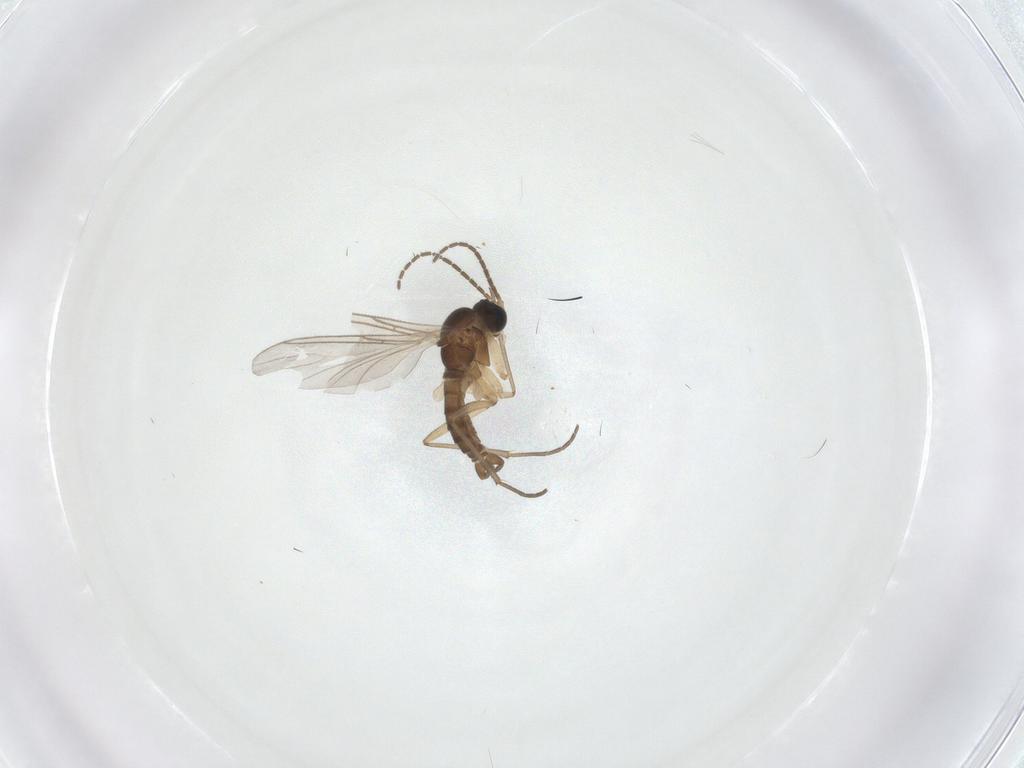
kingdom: Animalia
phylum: Arthropoda
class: Insecta
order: Diptera
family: Sciaridae
